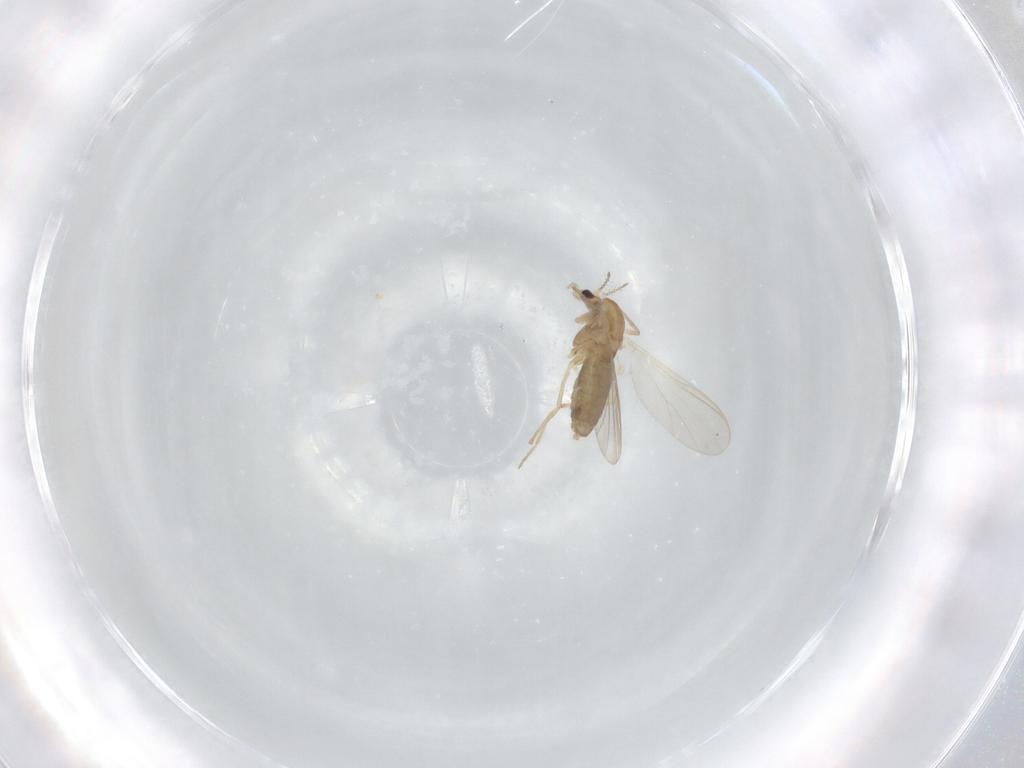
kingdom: Animalia
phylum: Arthropoda
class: Insecta
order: Diptera
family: Chironomidae
